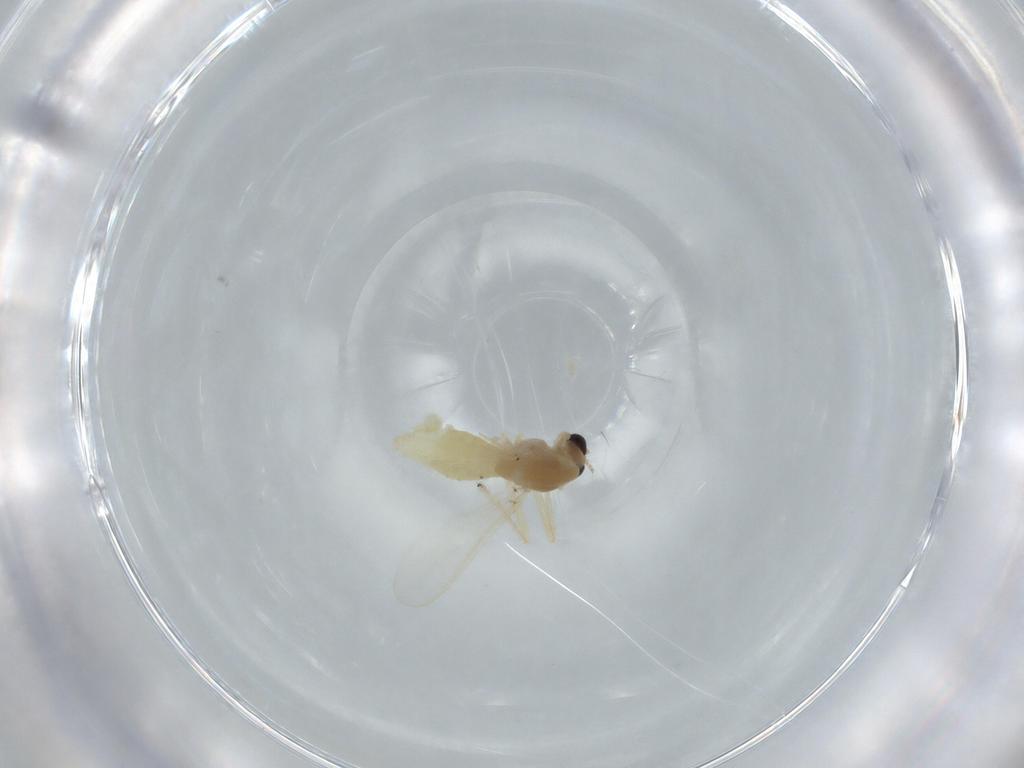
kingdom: Animalia
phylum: Arthropoda
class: Insecta
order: Diptera
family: Chironomidae
